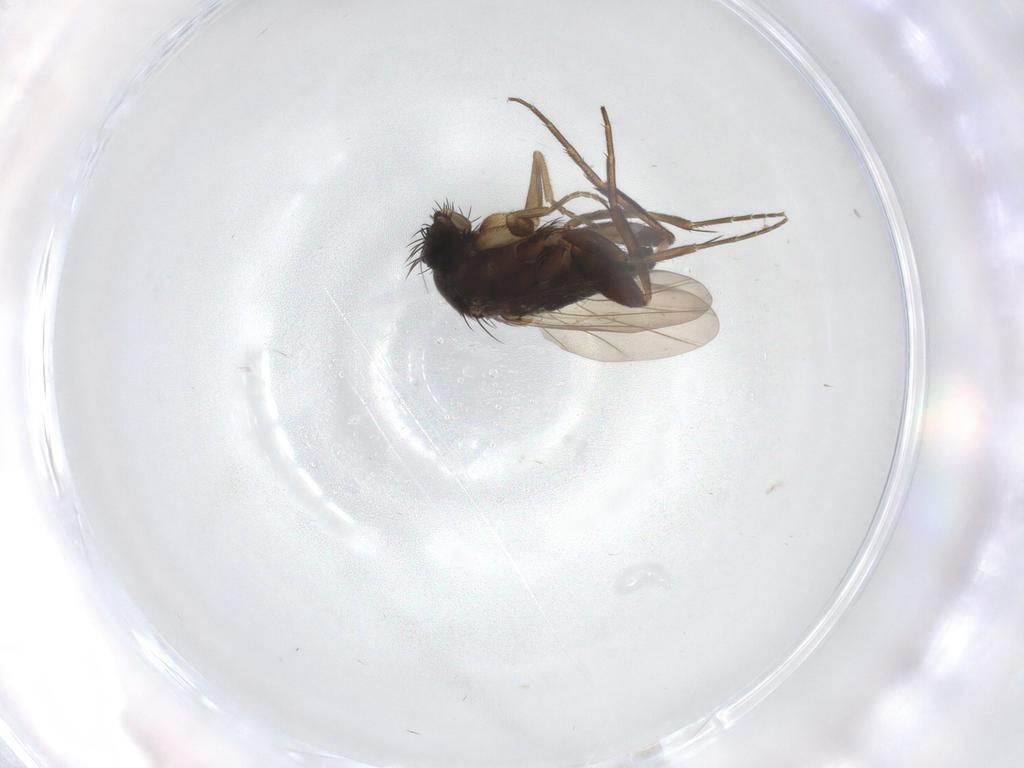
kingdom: Animalia
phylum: Arthropoda
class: Insecta
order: Diptera
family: Phoridae
